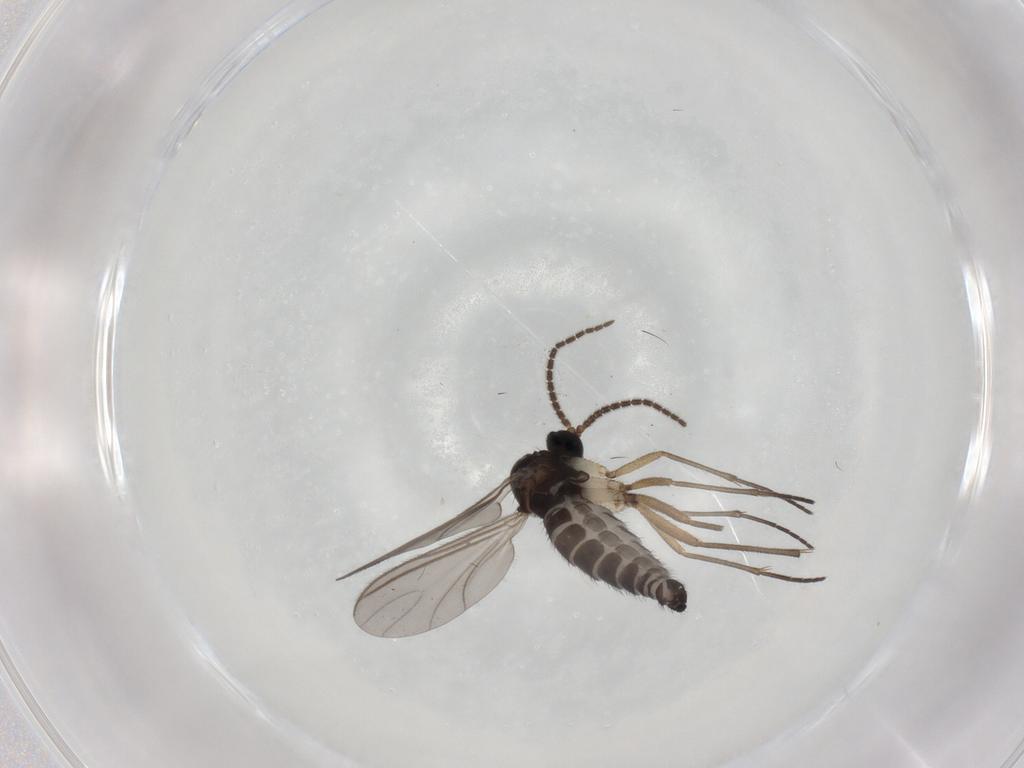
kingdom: Animalia
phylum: Arthropoda
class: Insecta
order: Diptera
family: Sciaridae
